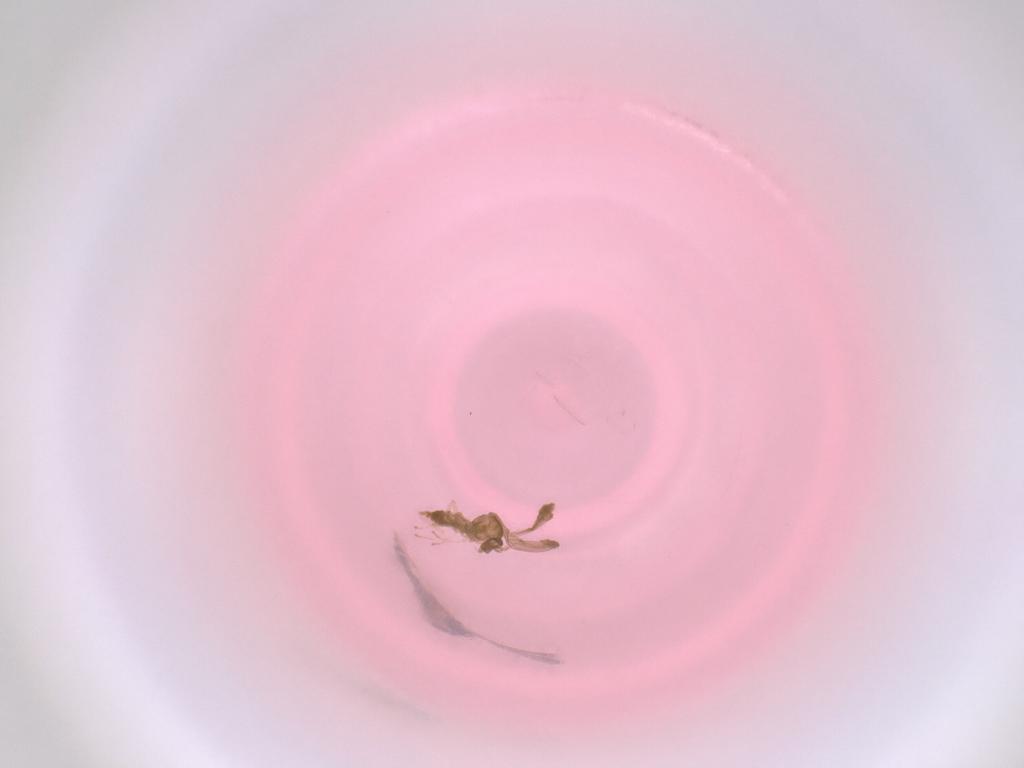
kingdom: Animalia
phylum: Arthropoda
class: Insecta
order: Diptera
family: Cecidomyiidae
